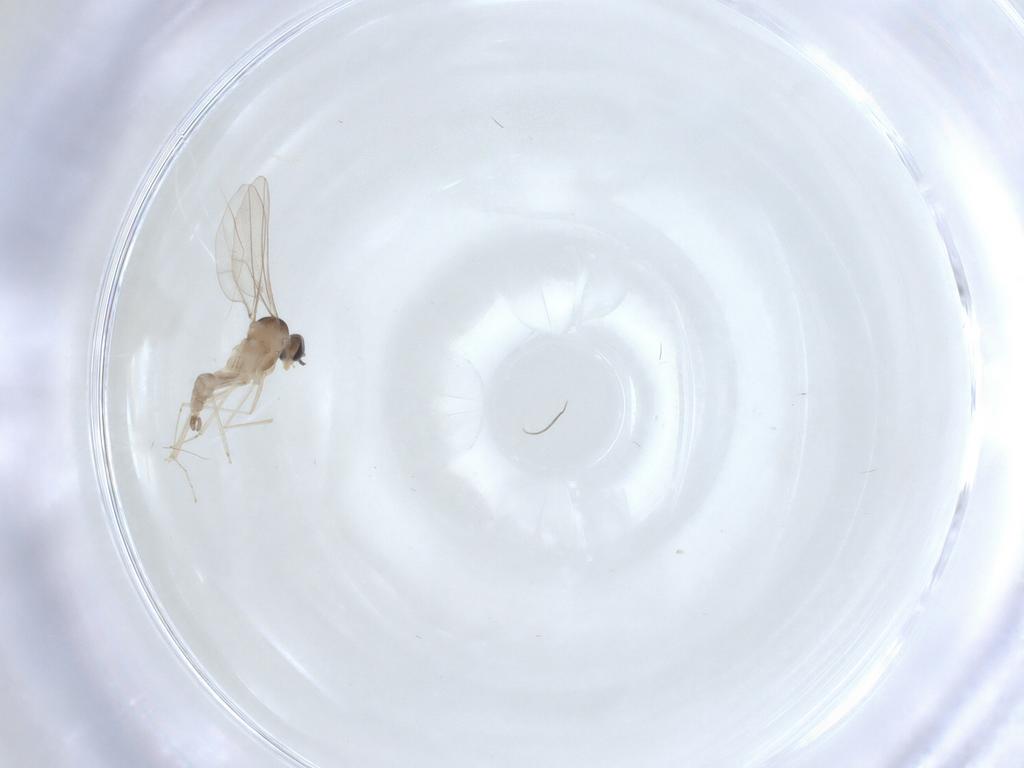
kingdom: Animalia
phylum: Arthropoda
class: Insecta
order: Diptera
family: Cecidomyiidae
